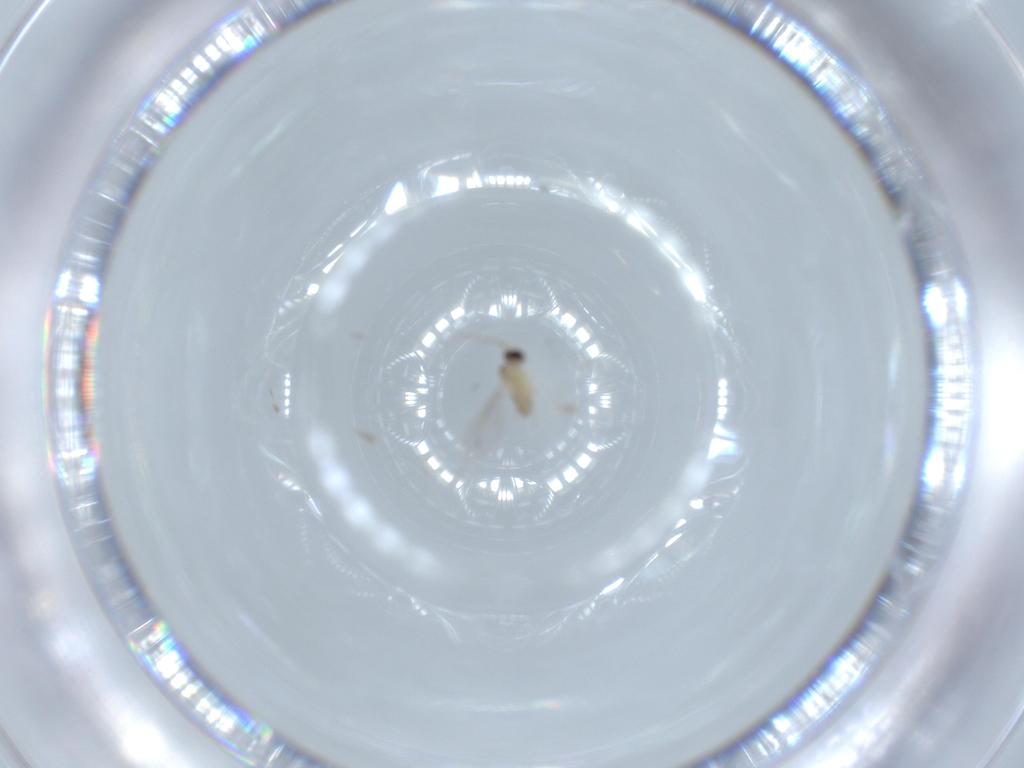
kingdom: Animalia
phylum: Arthropoda
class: Insecta
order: Diptera
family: Cecidomyiidae
